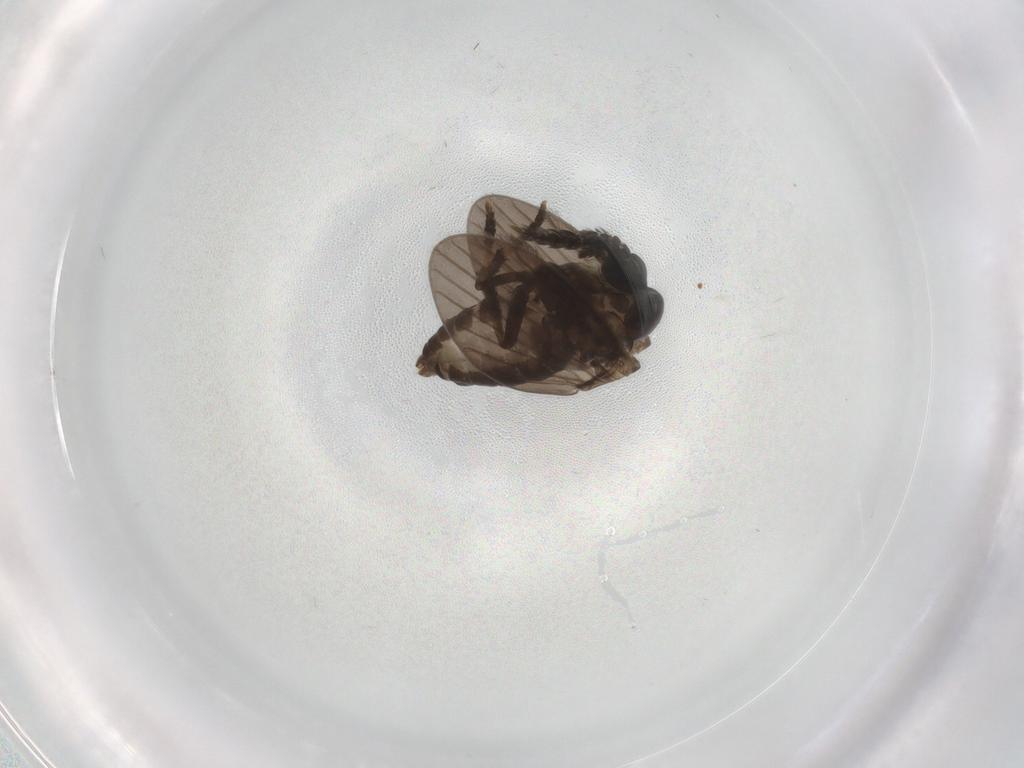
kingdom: Animalia
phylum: Arthropoda
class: Insecta
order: Diptera
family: Psychodidae
